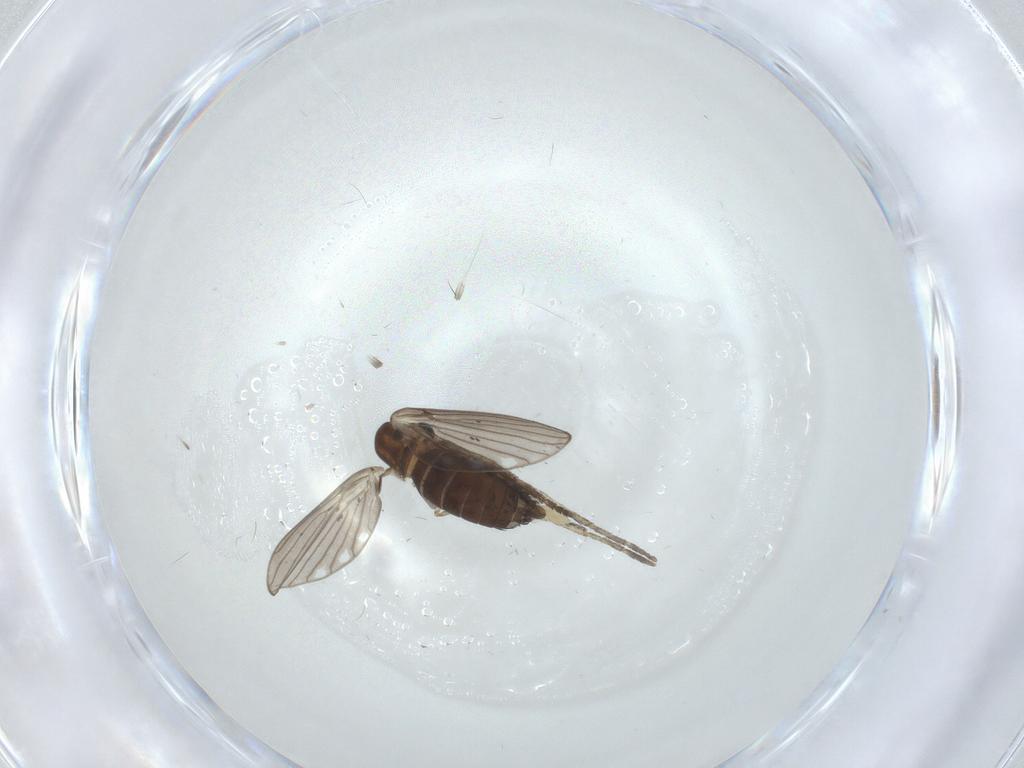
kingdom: Animalia
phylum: Arthropoda
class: Insecta
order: Diptera
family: Psychodidae
